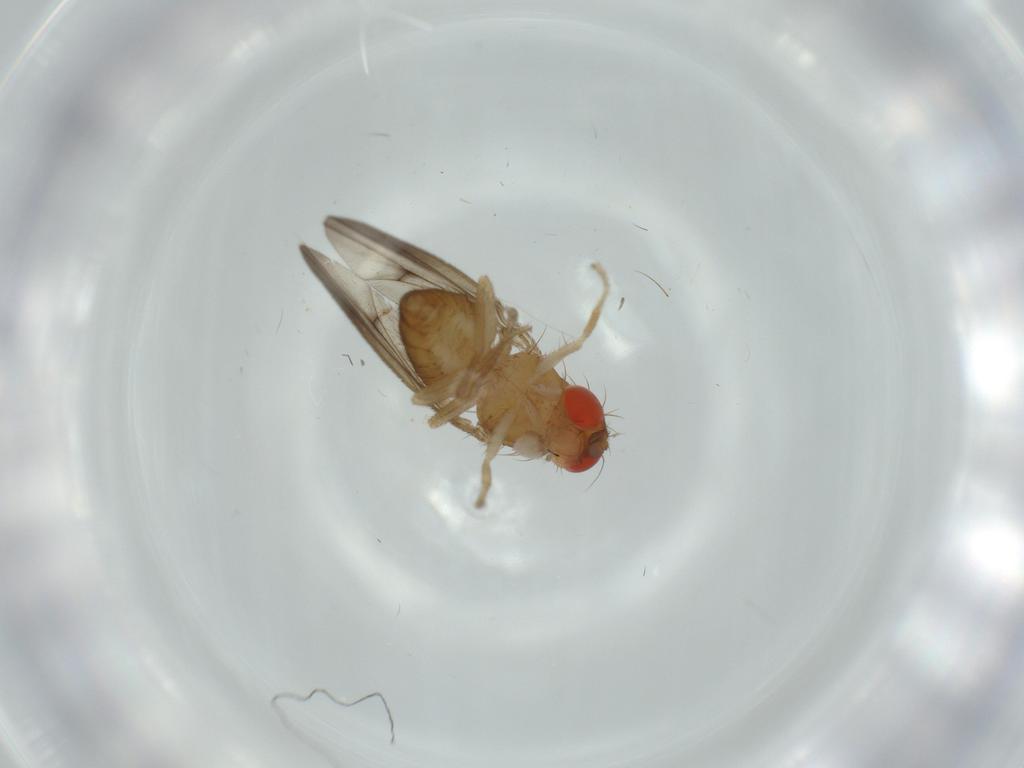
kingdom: Animalia
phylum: Arthropoda
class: Insecta
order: Diptera
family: Drosophilidae
